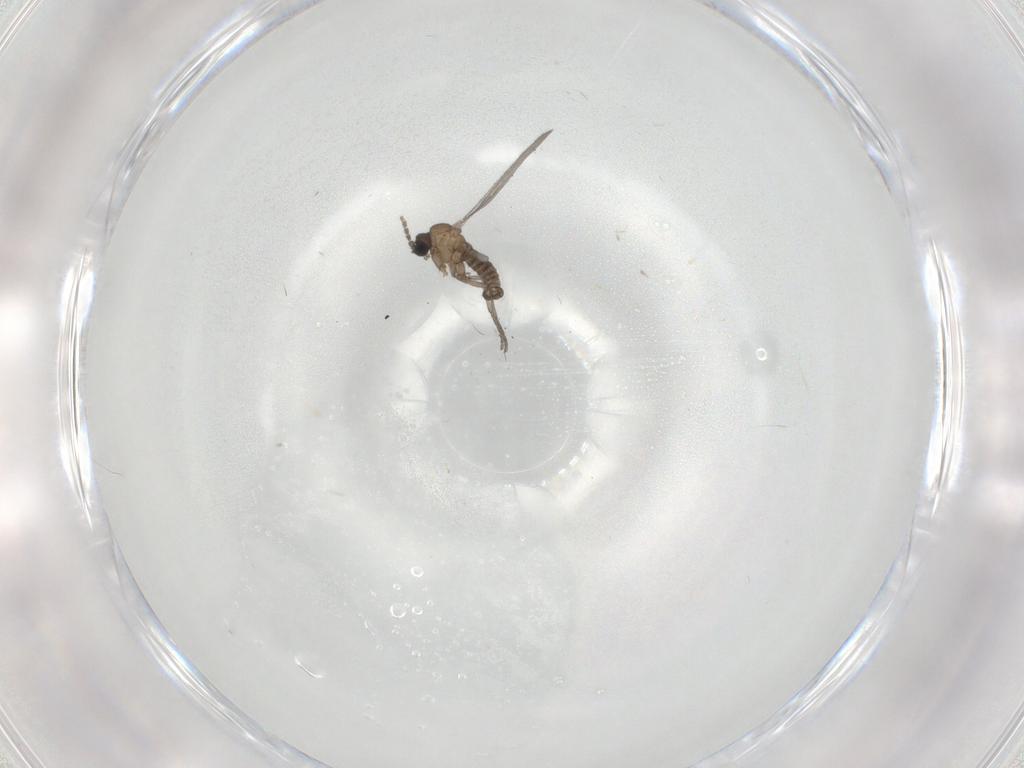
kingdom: Animalia
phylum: Arthropoda
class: Insecta
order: Diptera
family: Sciaridae
